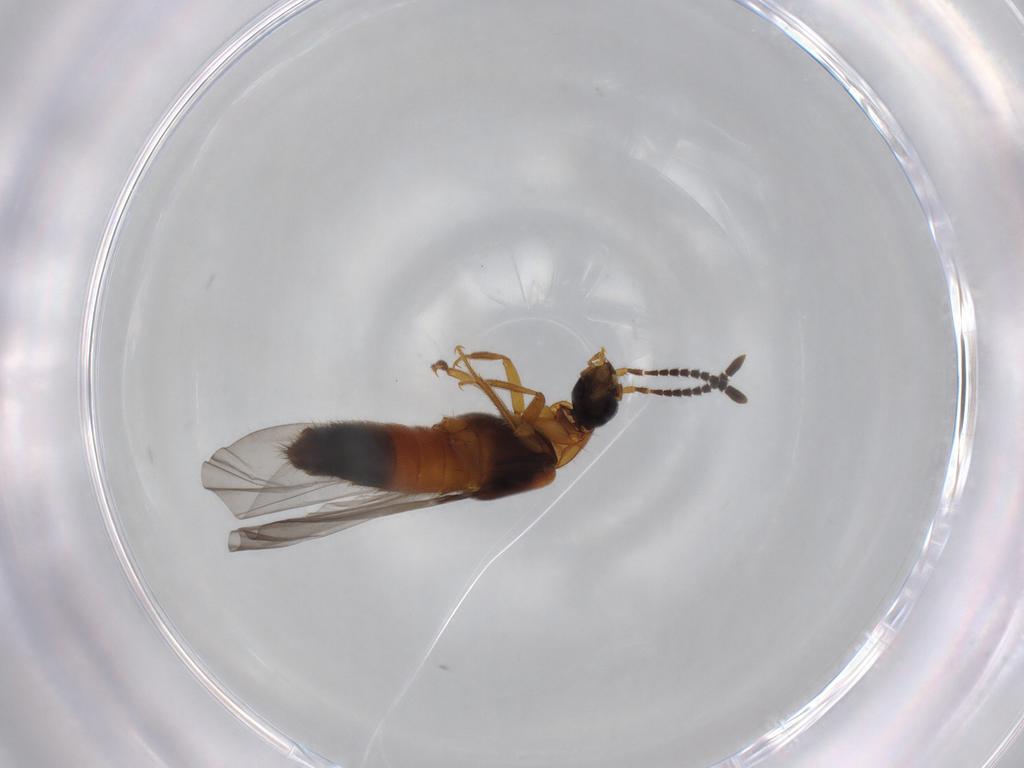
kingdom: Animalia
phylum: Arthropoda
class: Insecta
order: Coleoptera
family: Staphylinidae
